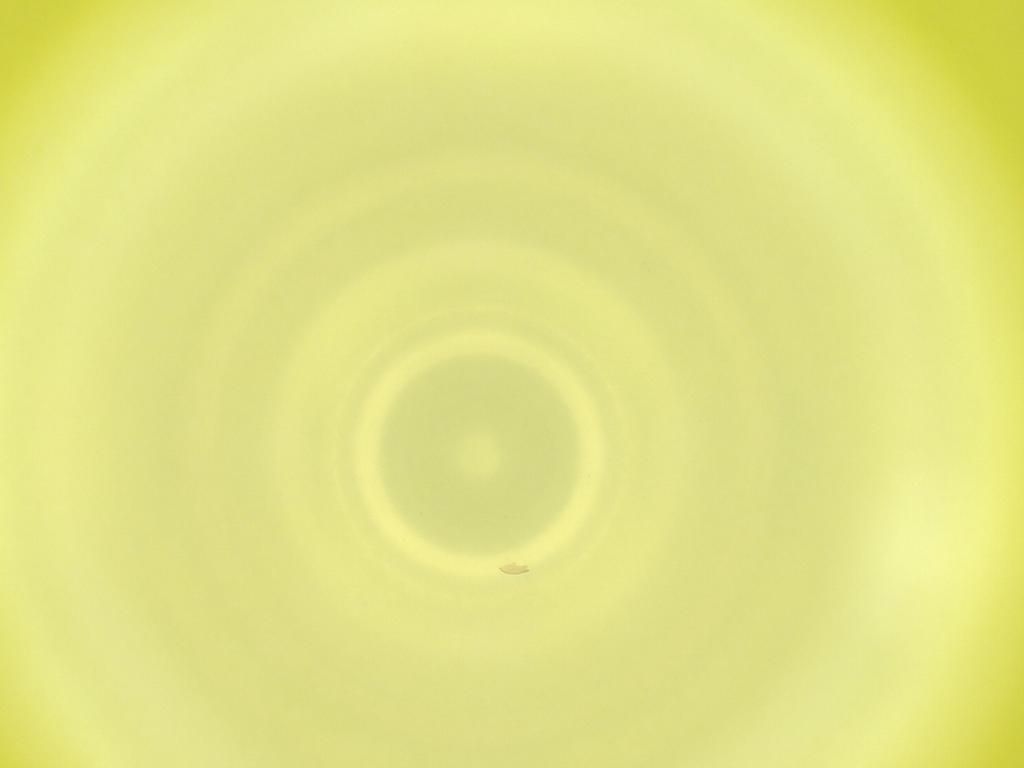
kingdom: Animalia
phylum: Arthropoda
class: Insecta
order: Diptera
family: Cecidomyiidae
